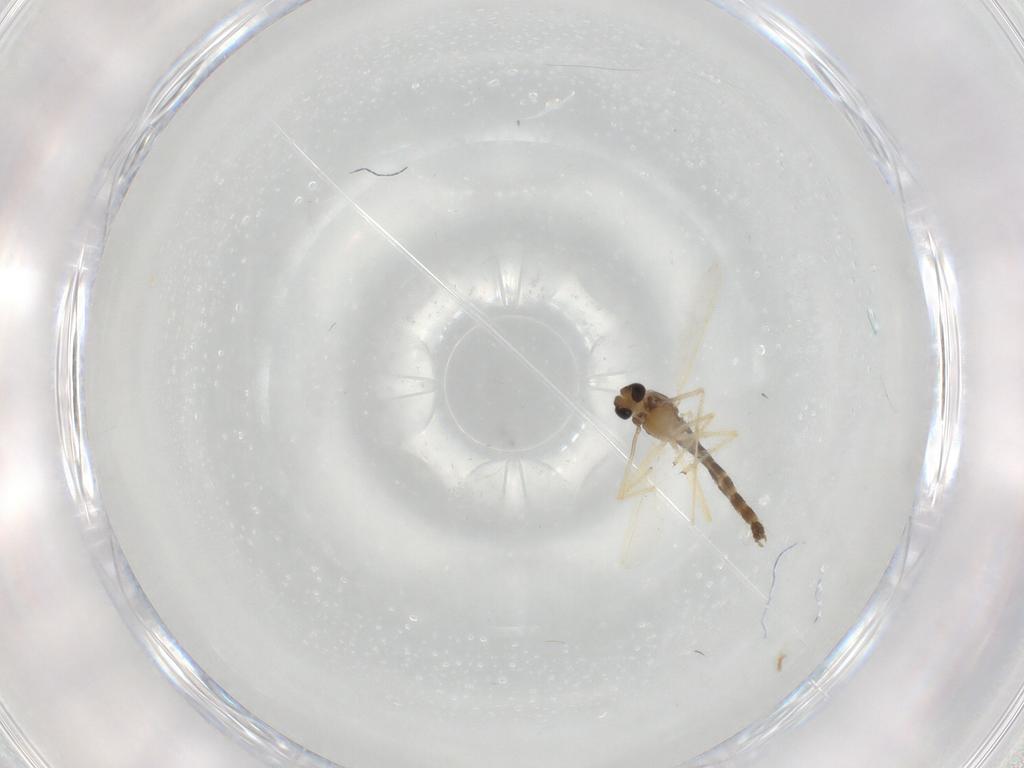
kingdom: Animalia
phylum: Arthropoda
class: Insecta
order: Diptera
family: Chironomidae
